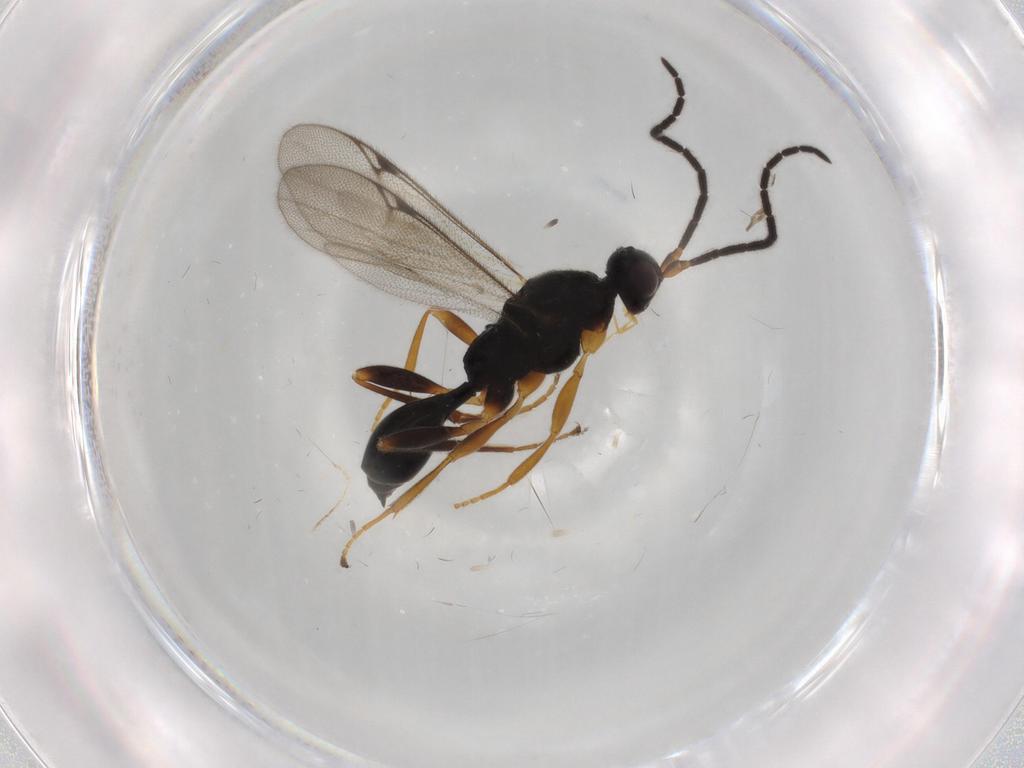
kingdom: Animalia
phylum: Arthropoda
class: Insecta
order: Hymenoptera
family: Proctotrupidae
